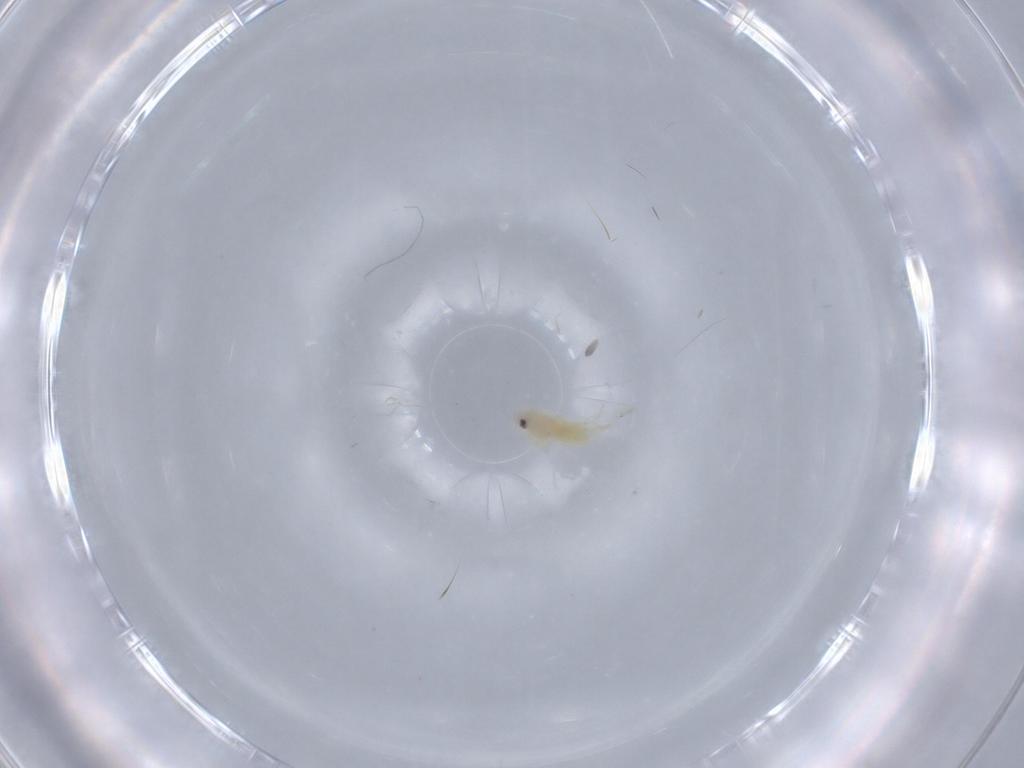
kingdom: Animalia
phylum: Arthropoda
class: Insecta
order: Hemiptera
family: Aleyrodidae
